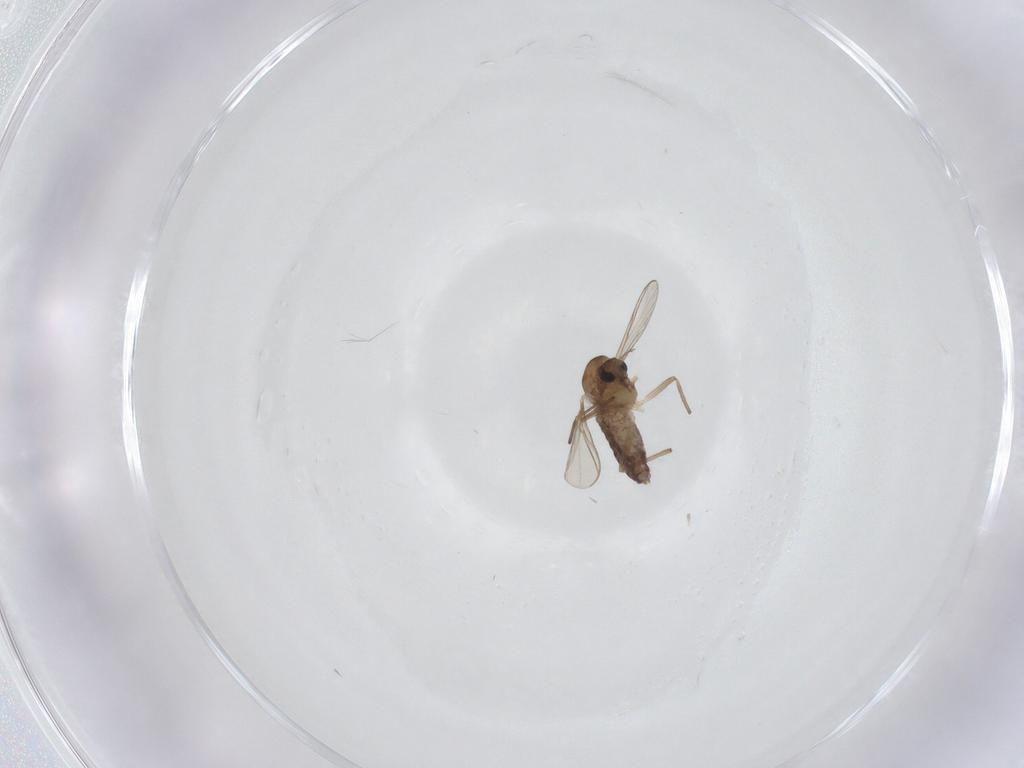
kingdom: Animalia
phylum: Arthropoda
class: Insecta
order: Diptera
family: Chironomidae
